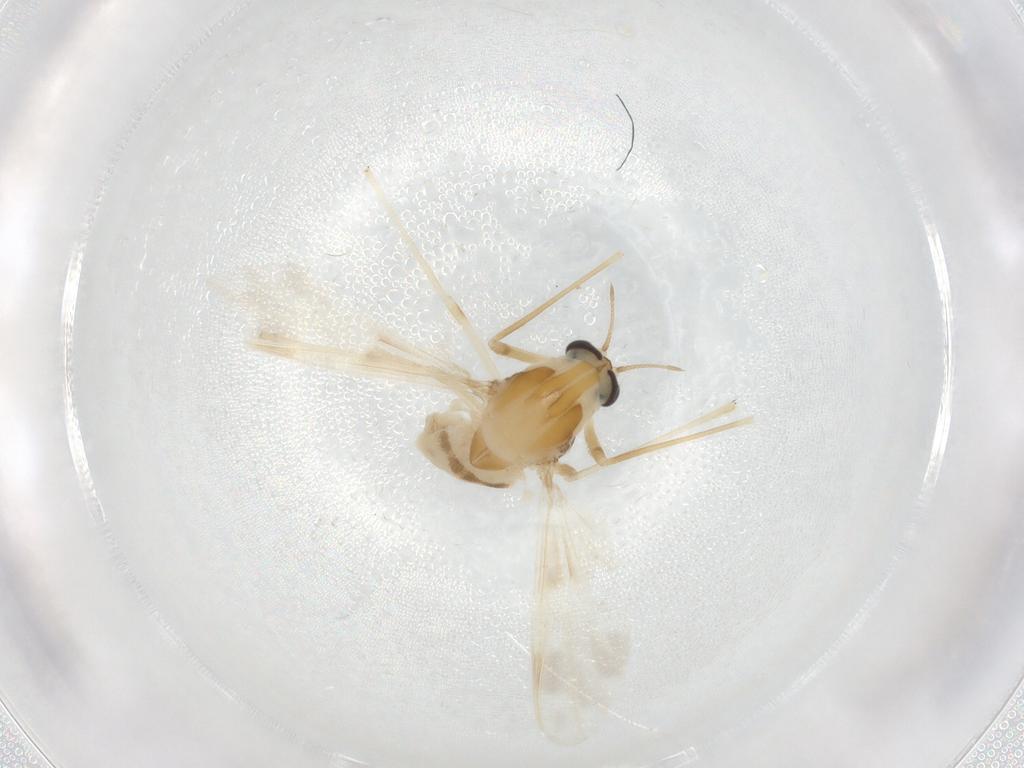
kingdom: Animalia
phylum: Arthropoda
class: Insecta
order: Diptera
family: Chironomidae
